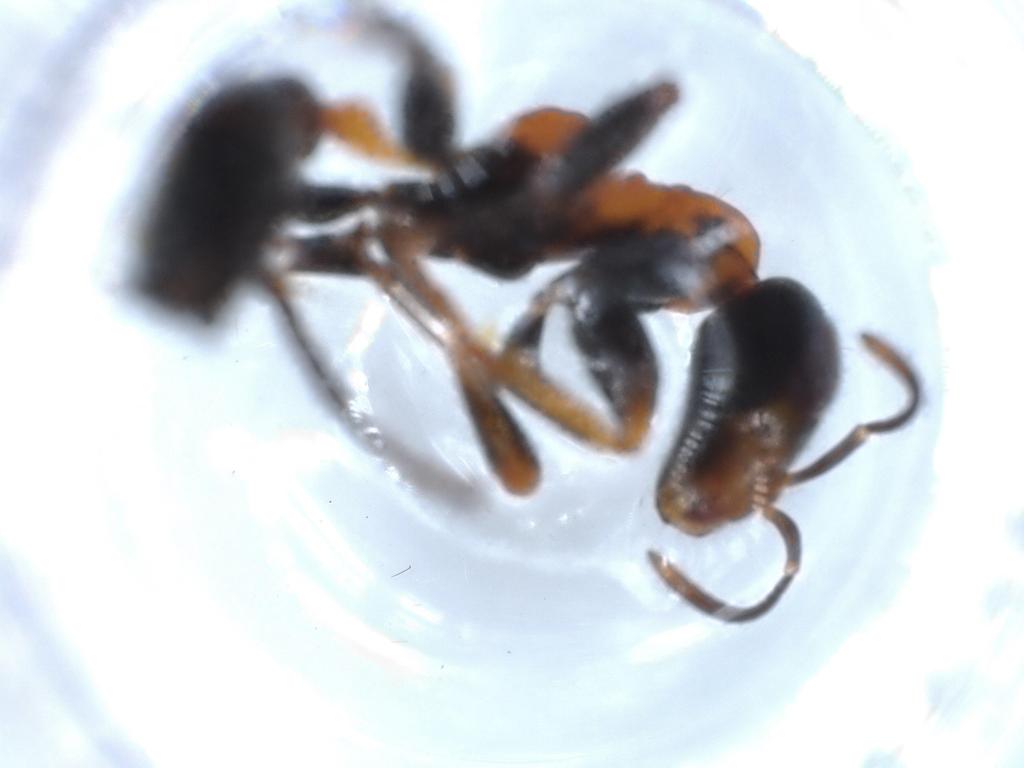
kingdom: Animalia
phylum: Arthropoda
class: Insecta
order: Hymenoptera
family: Formicidae
